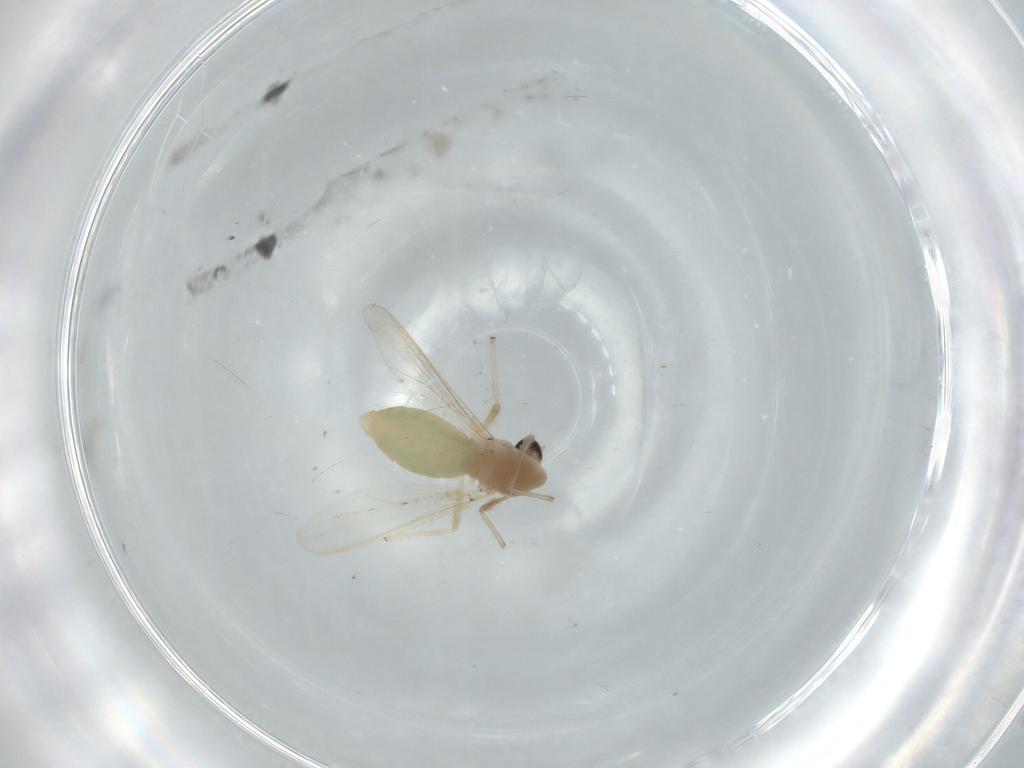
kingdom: Animalia
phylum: Arthropoda
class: Insecta
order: Diptera
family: Chironomidae
